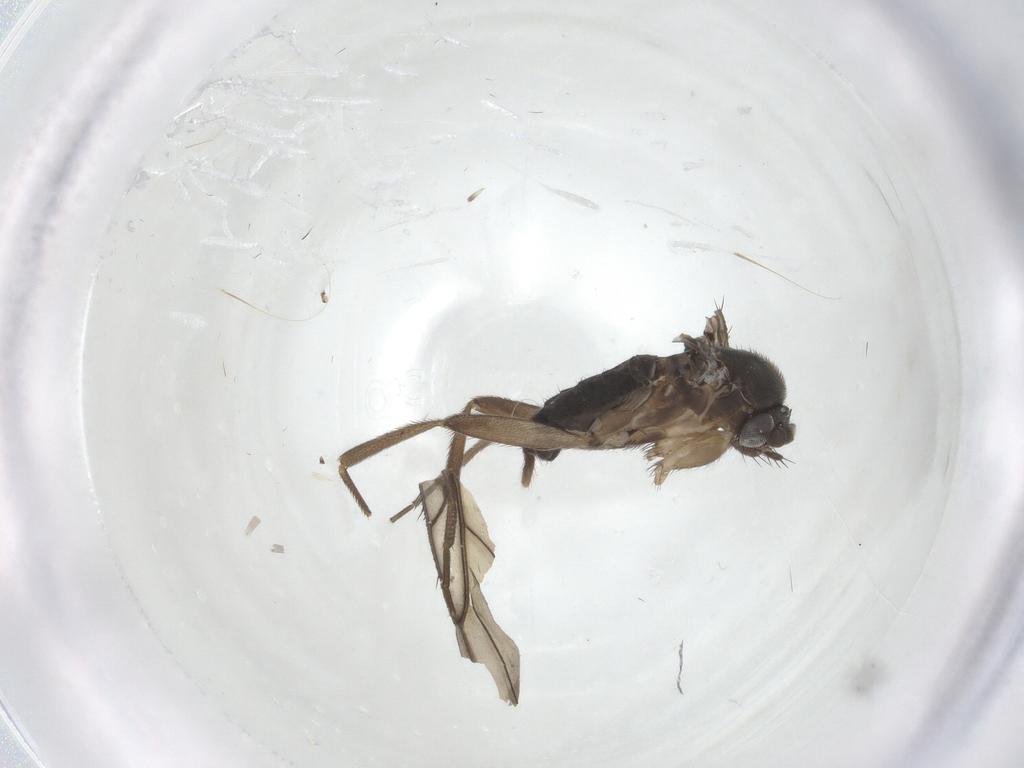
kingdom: Animalia
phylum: Arthropoda
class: Insecta
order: Diptera
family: Phoridae
